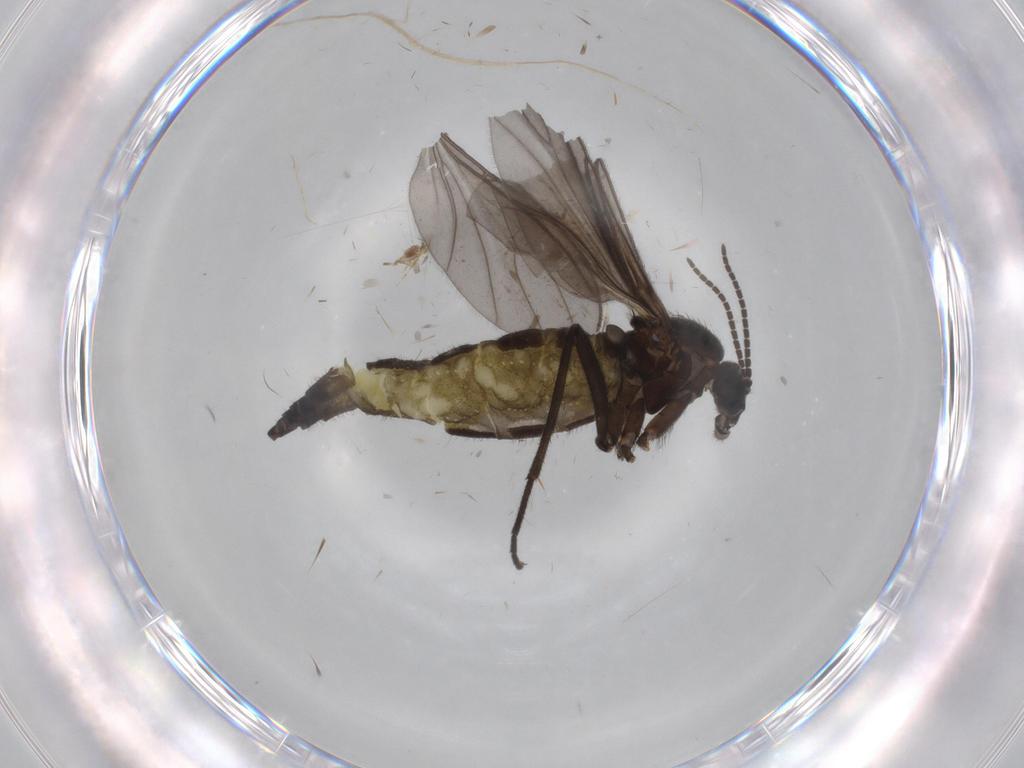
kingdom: Animalia
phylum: Arthropoda
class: Insecta
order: Diptera
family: Sciaridae
